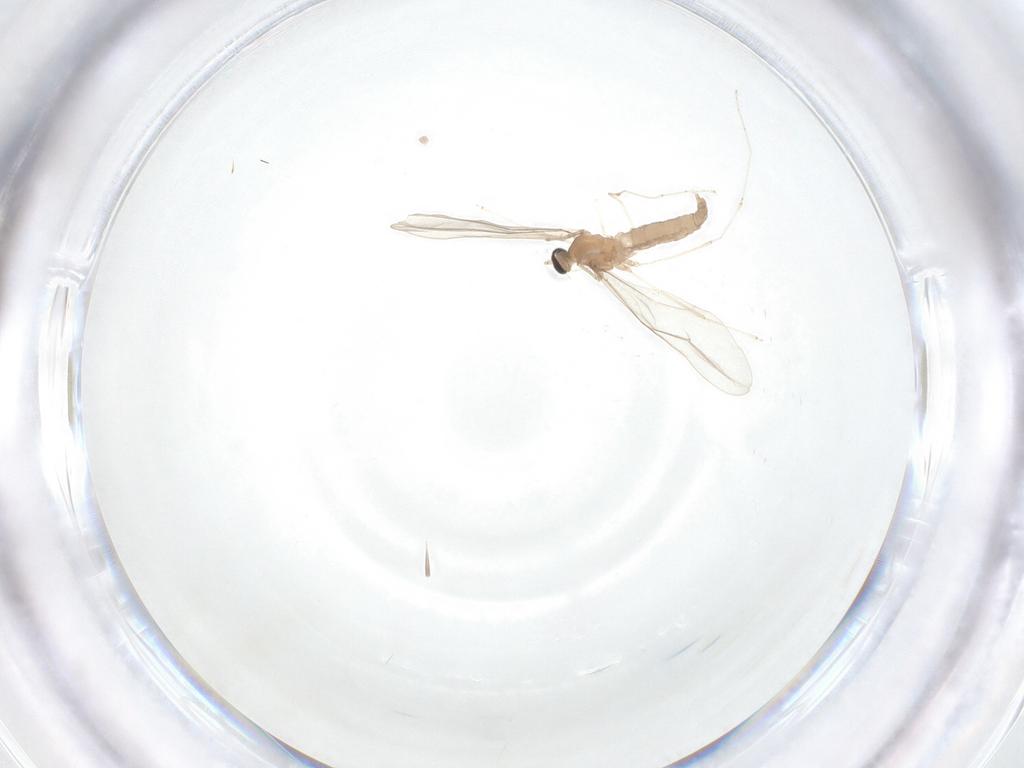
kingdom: Animalia
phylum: Arthropoda
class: Insecta
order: Diptera
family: Cecidomyiidae
